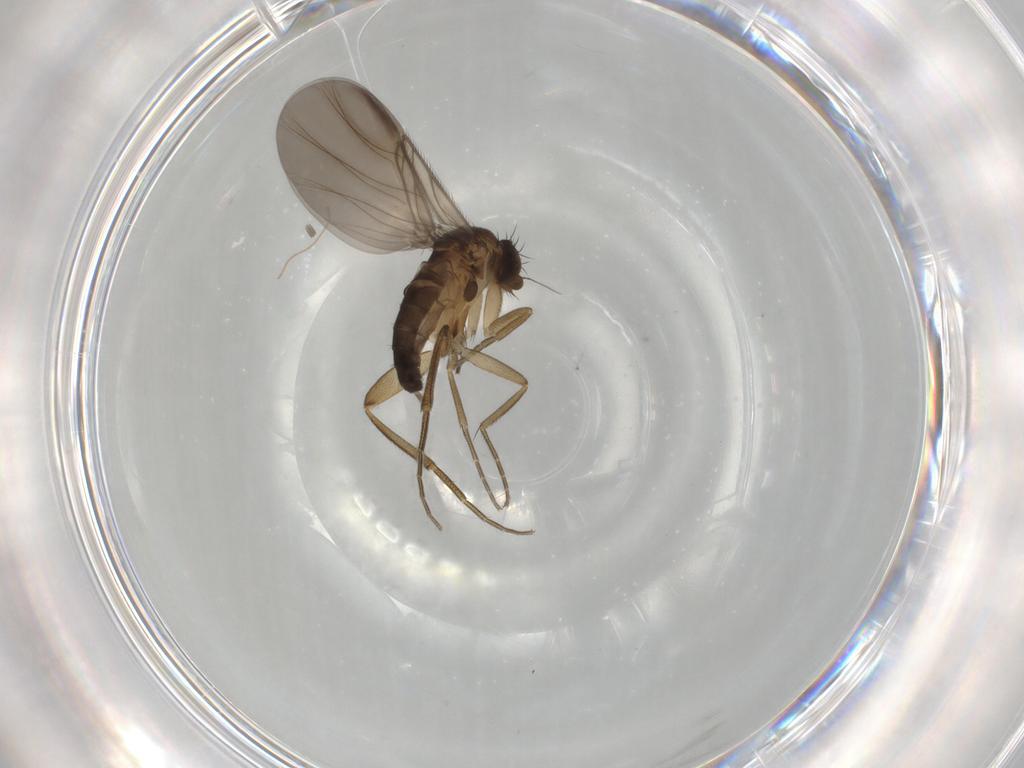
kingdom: Animalia
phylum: Arthropoda
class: Insecta
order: Diptera
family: Phoridae
